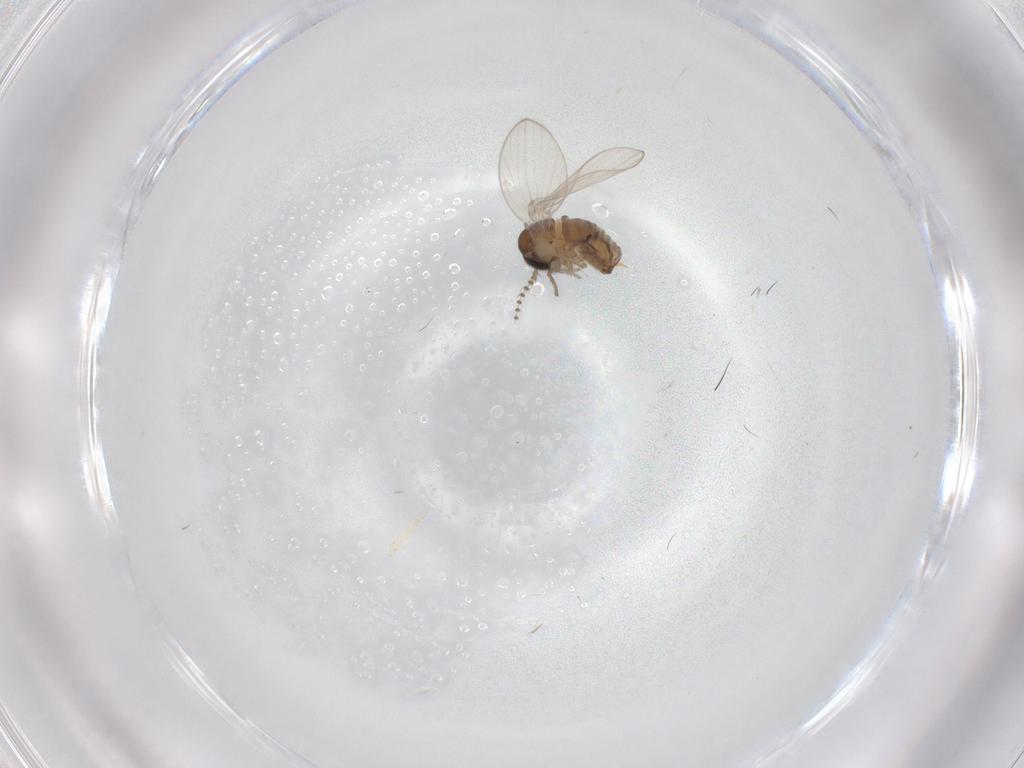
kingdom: Animalia
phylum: Arthropoda
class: Insecta
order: Diptera
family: Psychodidae
